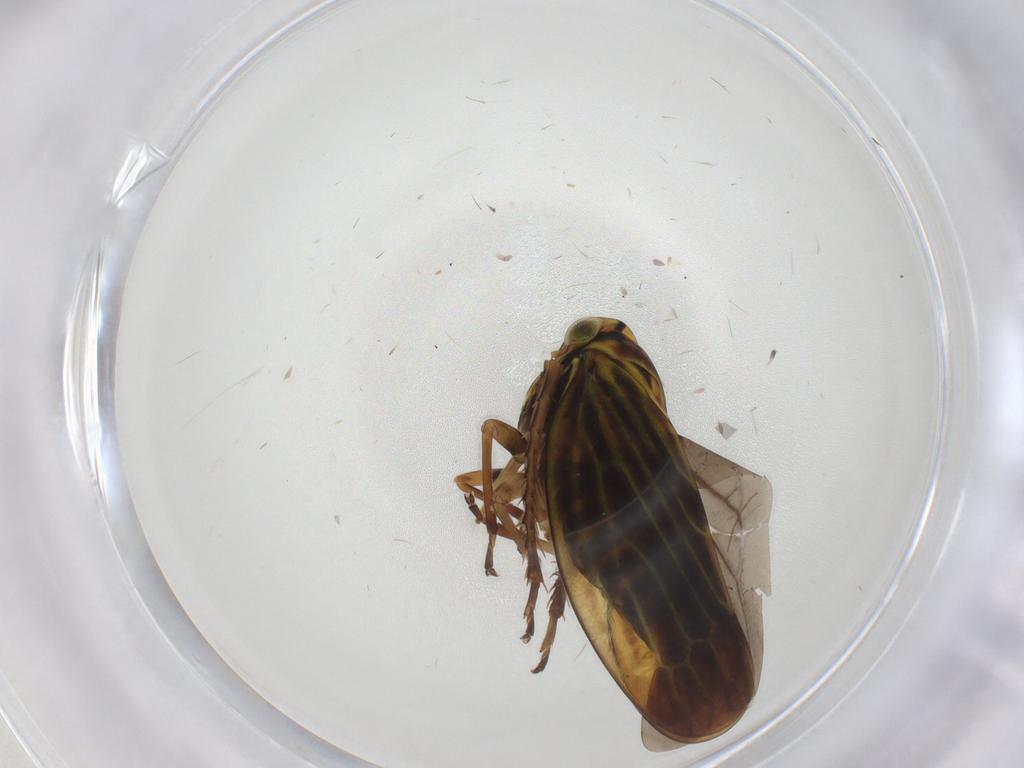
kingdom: Animalia
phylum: Arthropoda
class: Insecta
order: Hemiptera
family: Cicadellidae
